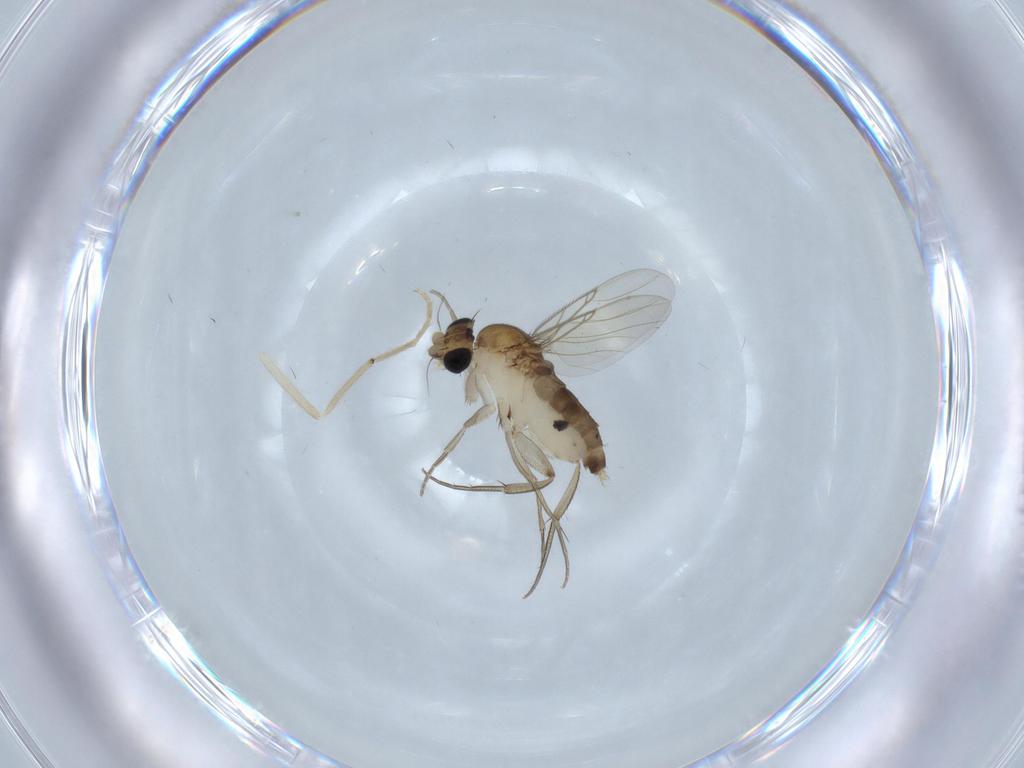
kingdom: Animalia
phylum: Arthropoda
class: Insecta
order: Diptera
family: Phoridae
